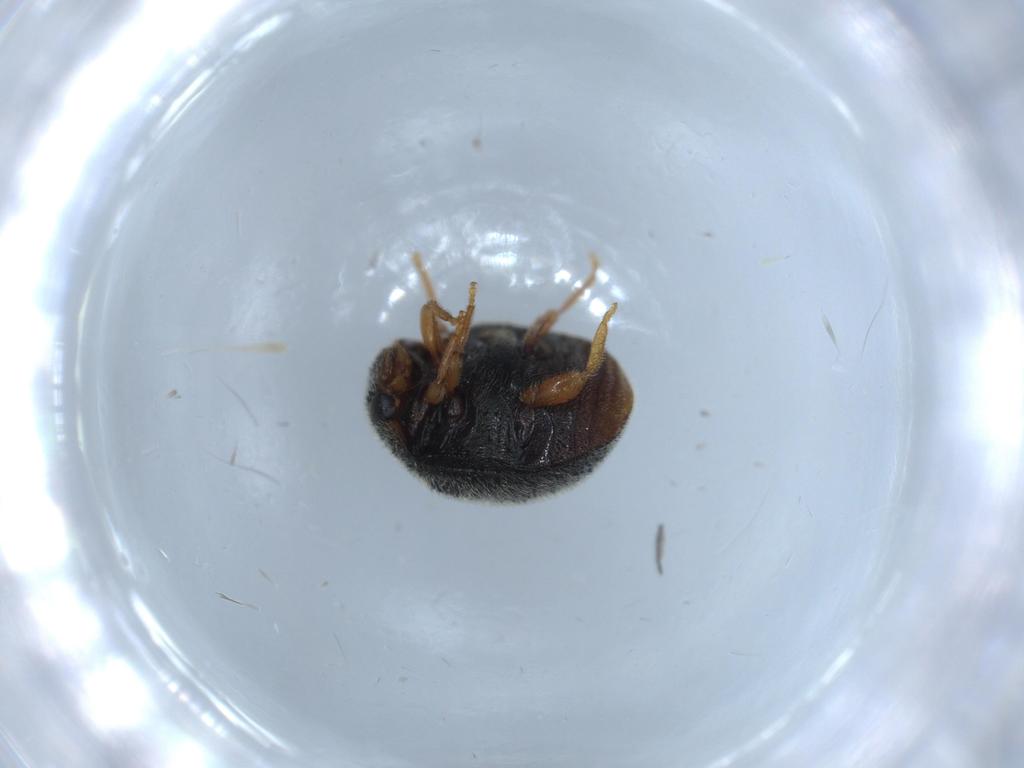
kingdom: Animalia
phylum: Arthropoda
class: Insecta
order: Coleoptera
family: Coccinellidae
